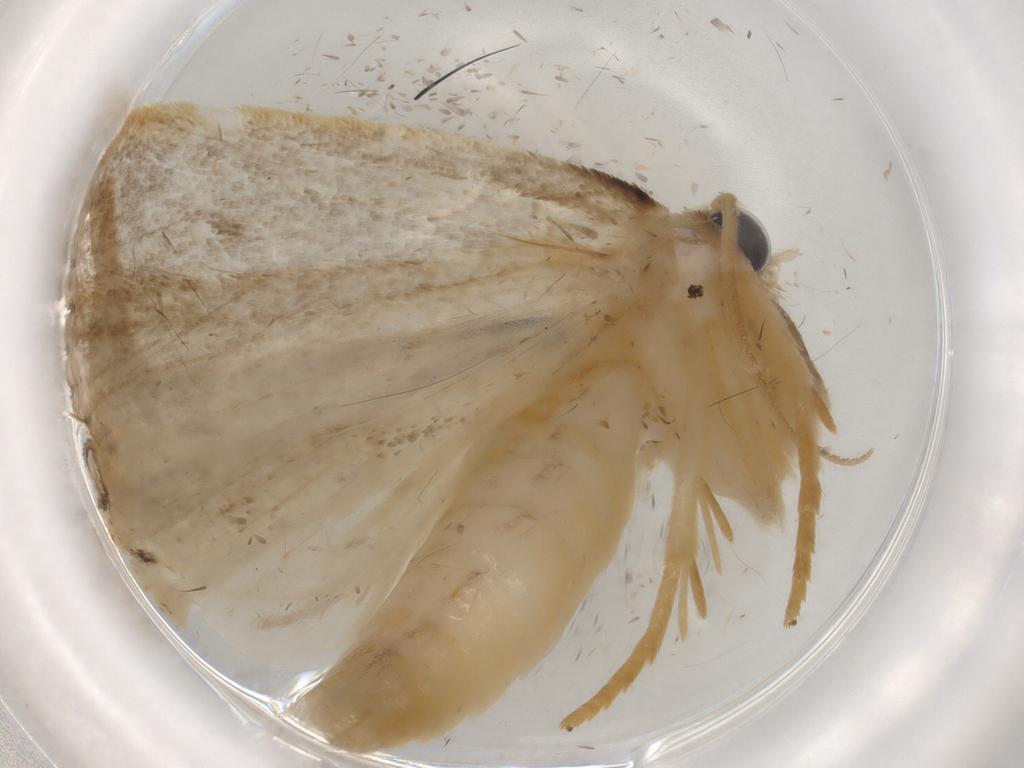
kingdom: Animalia
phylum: Arthropoda
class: Insecta
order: Lepidoptera
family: Crambidae
